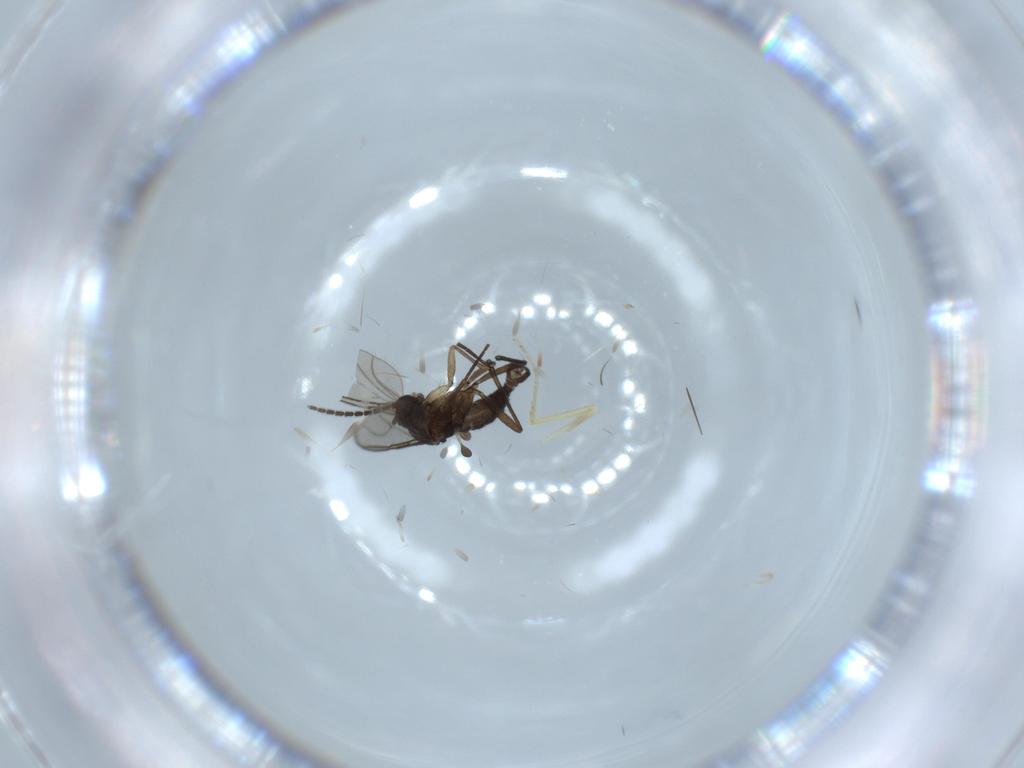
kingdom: Animalia
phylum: Arthropoda
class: Insecta
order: Diptera
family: Sciaridae
